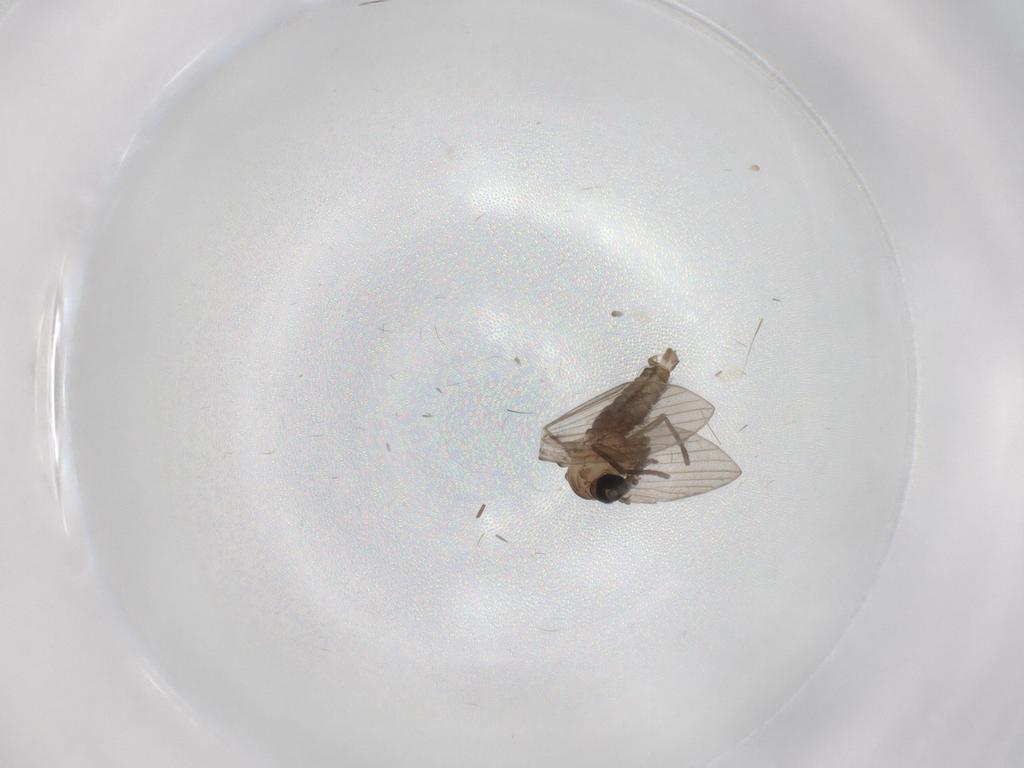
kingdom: Animalia
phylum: Arthropoda
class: Insecta
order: Diptera
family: Psychodidae
